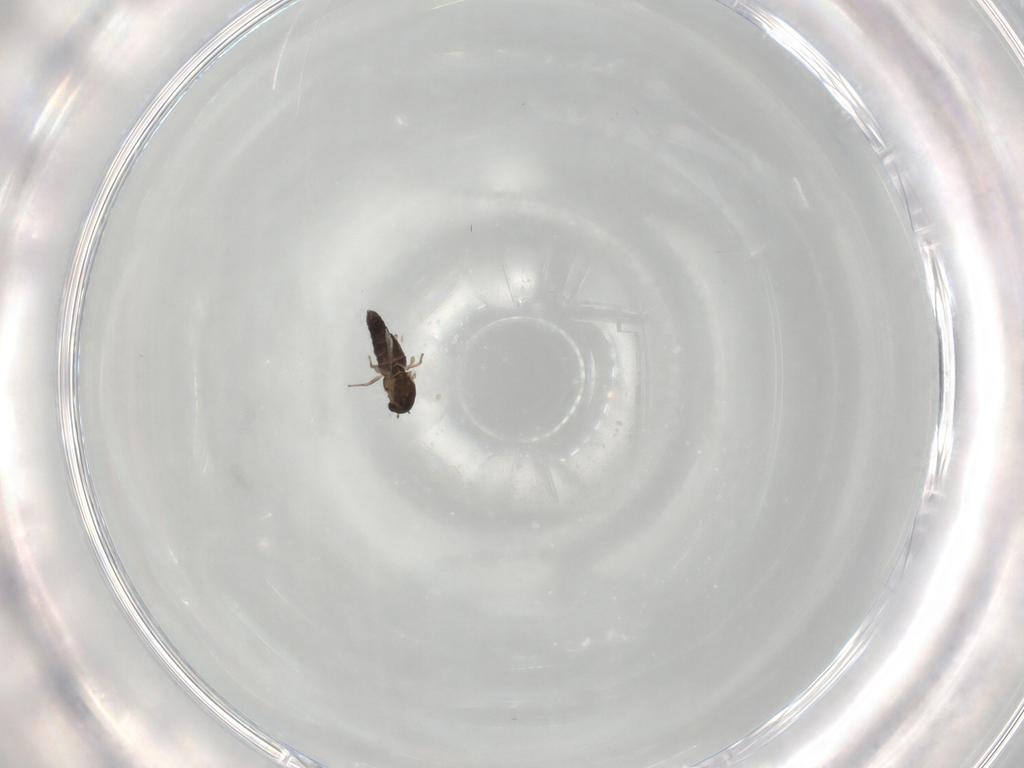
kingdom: Animalia
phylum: Arthropoda
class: Insecta
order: Diptera
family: Chironomidae
